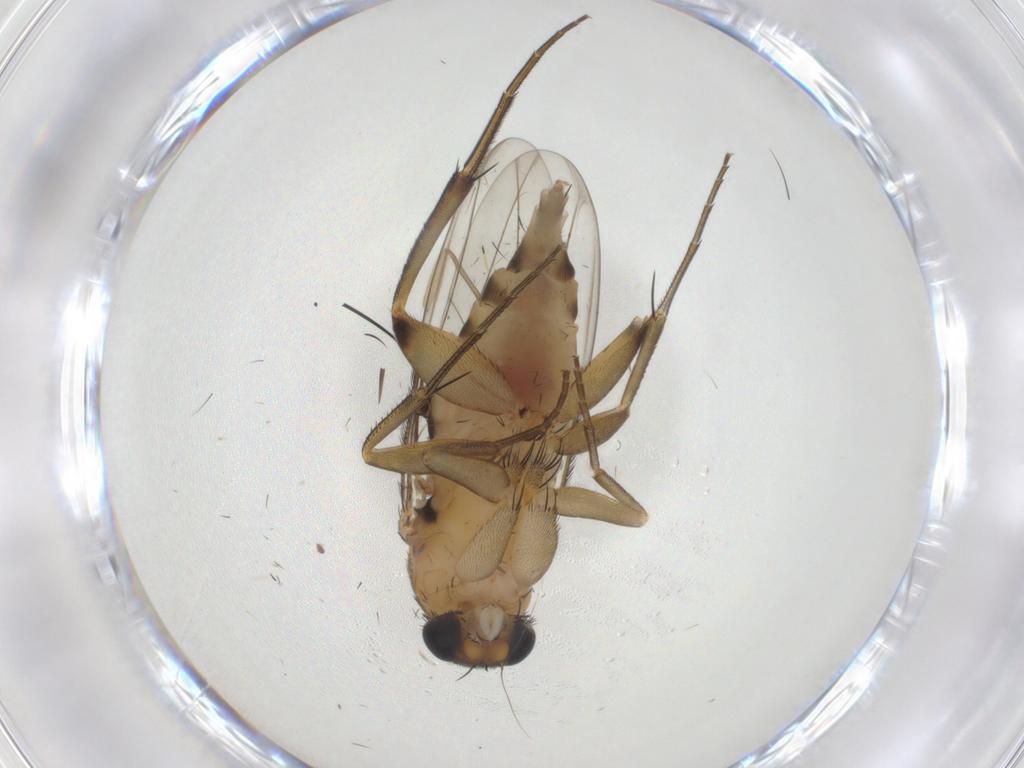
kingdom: Animalia
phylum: Arthropoda
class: Insecta
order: Diptera
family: Phoridae
